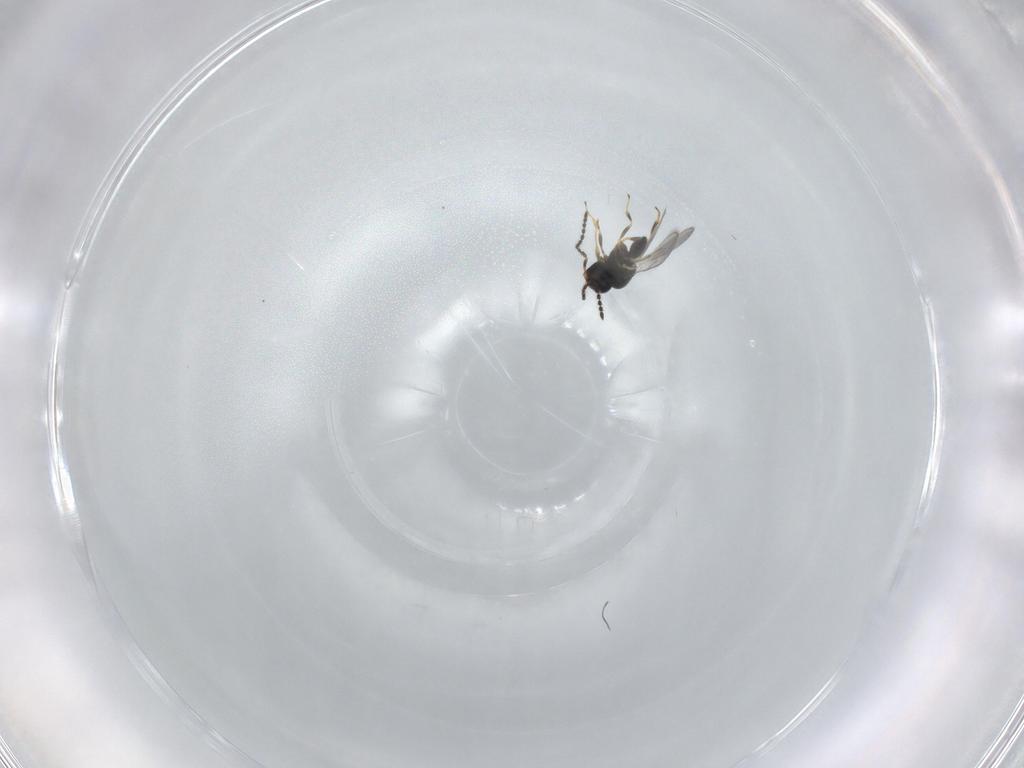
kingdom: Animalia
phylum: Arthropoda
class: Insecta
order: Hymenoptera
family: Scelionidae
